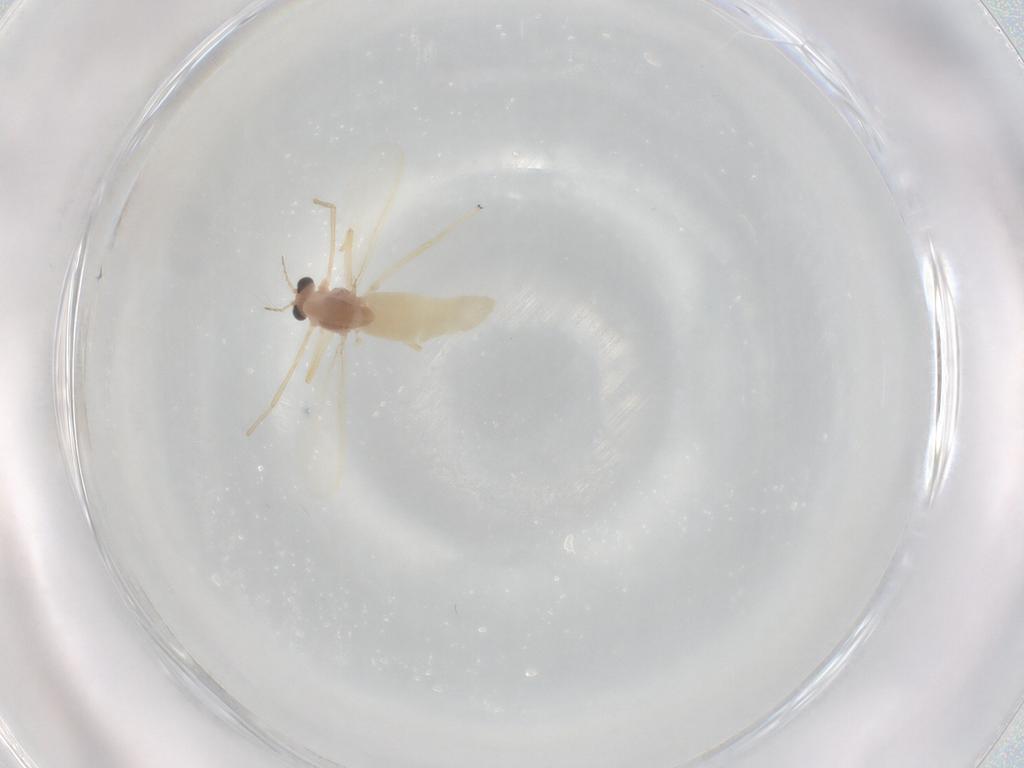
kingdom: Animalia
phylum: Arthropoda
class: Insecta
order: Diptera
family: Chironomidae
